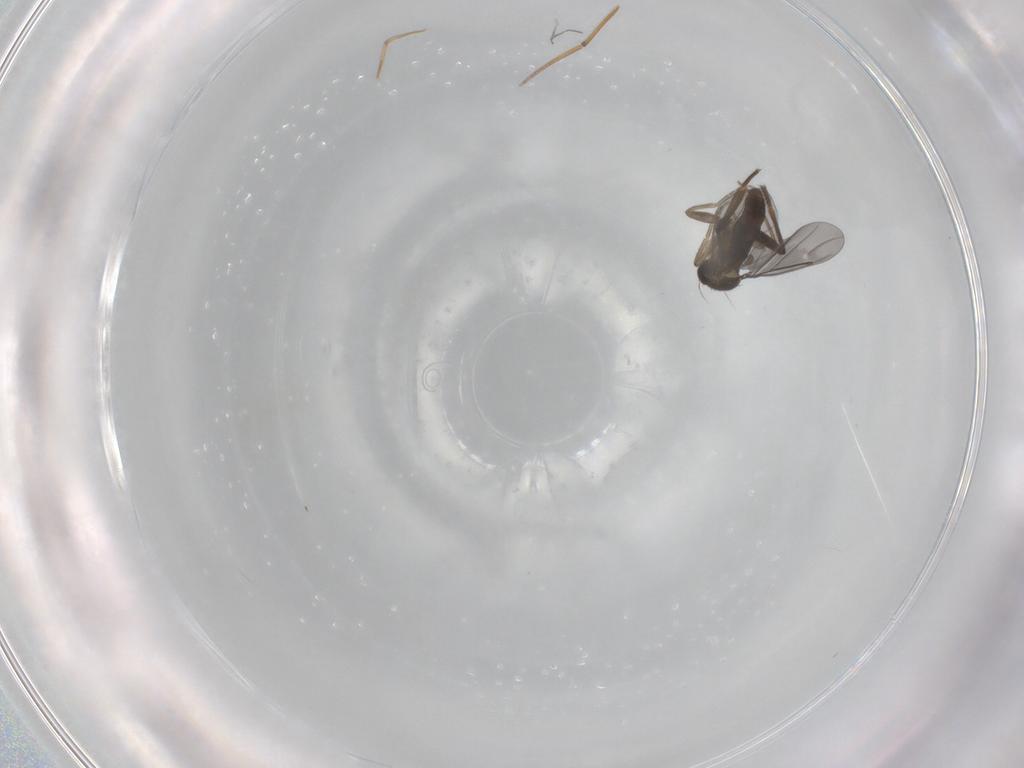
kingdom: Animalia
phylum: Arthropoda
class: Insecta
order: Diptera
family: Phoridae
